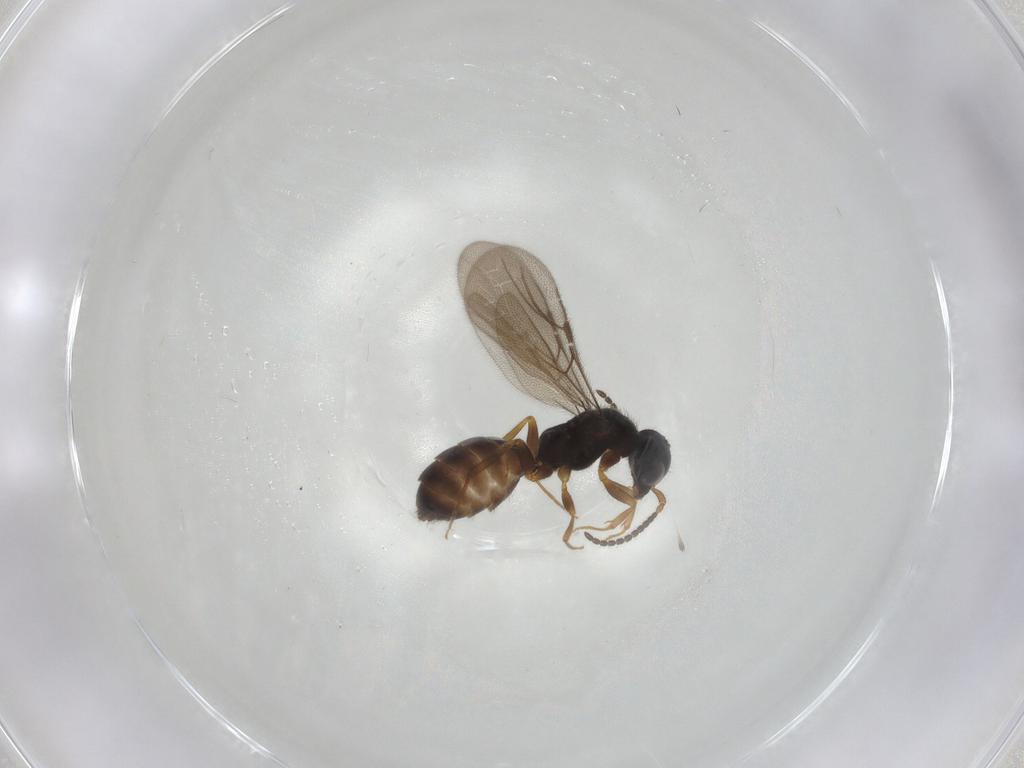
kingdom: Animalia
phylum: Arthropoda
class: Insecta
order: Hymenoptera
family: Bethylidae
